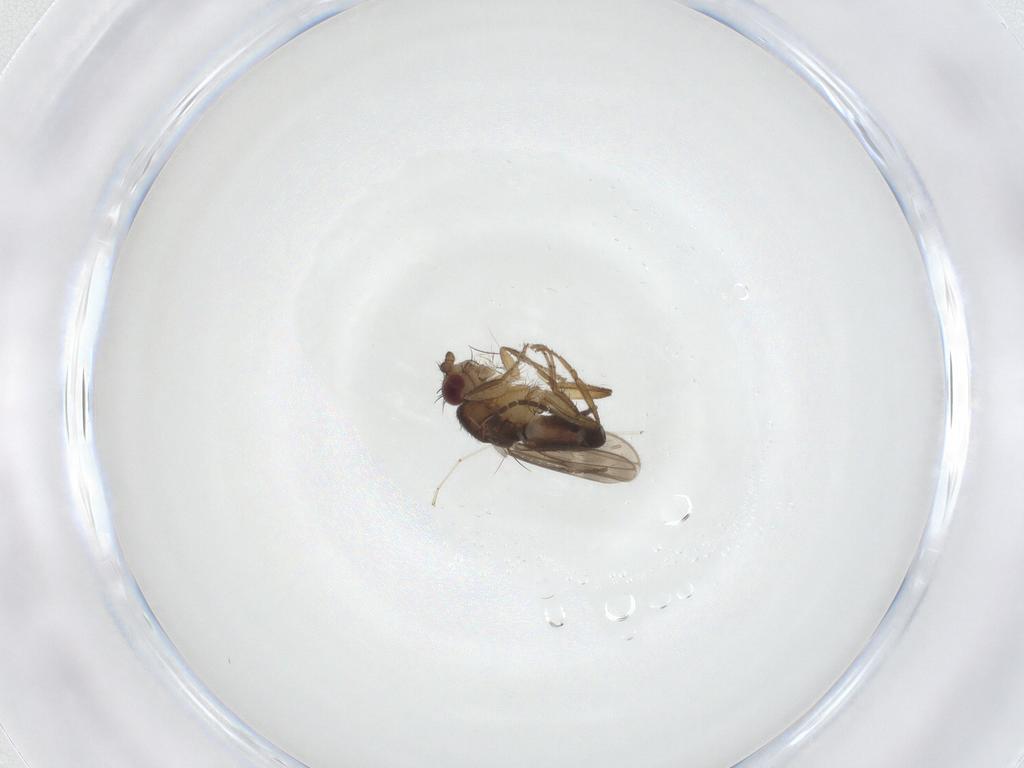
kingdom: Animalia
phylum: Arthropoda
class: Insecta
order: Diptera
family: Sphaeroceridae
